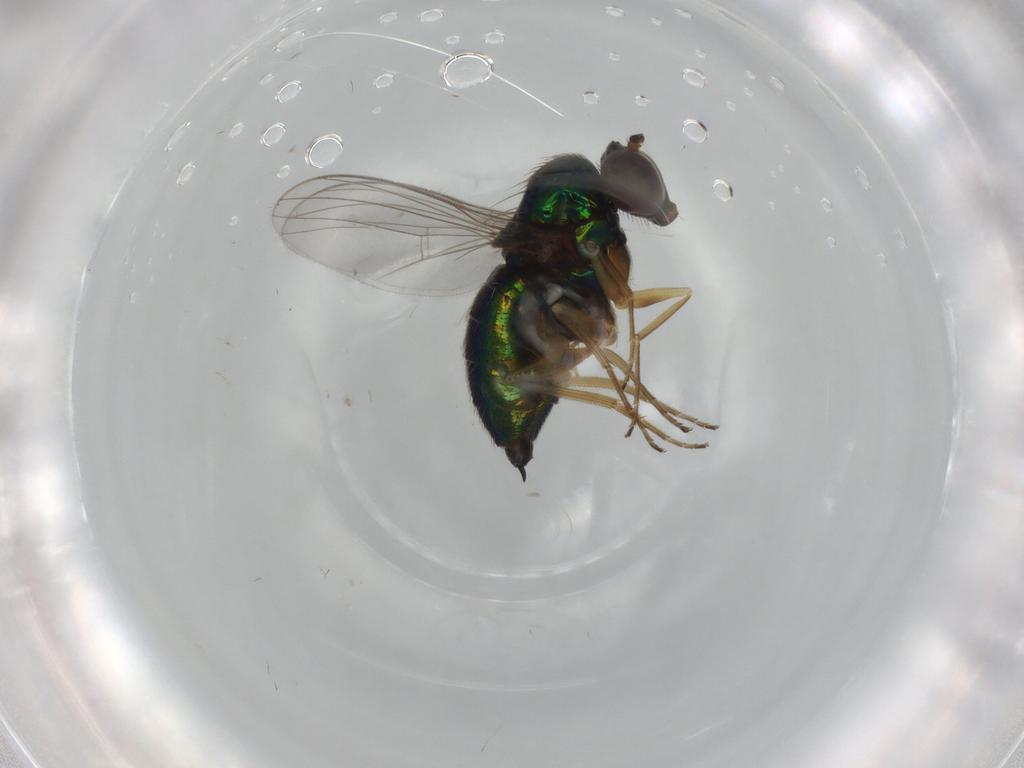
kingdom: Animalia
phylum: Arthropoda
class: Insecta
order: Diptera
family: Dolichopodidae
